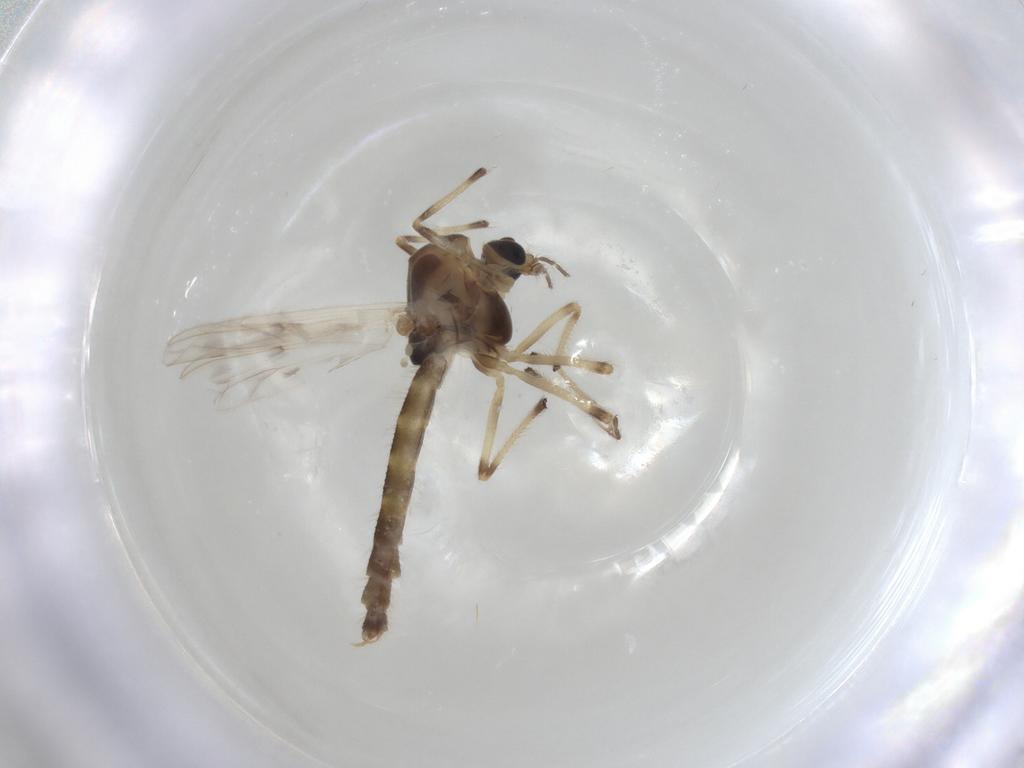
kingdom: Animalia
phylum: Arthropoda
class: Insecta
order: Diptera
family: Chironomidae
